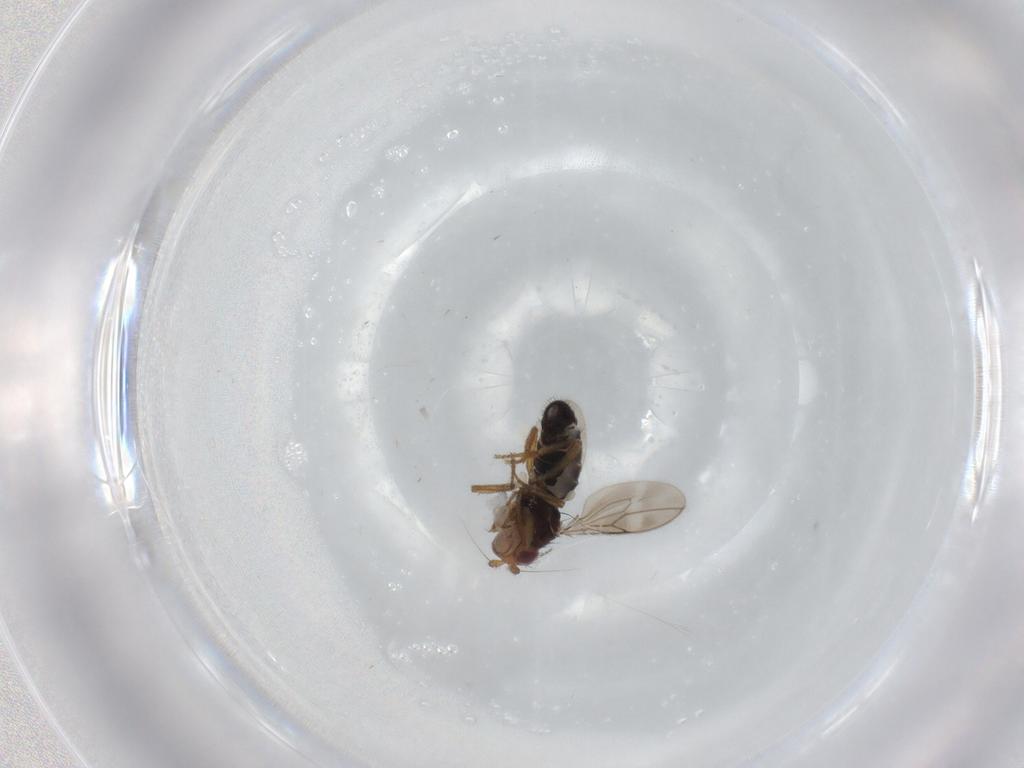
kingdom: Animalia
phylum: Arthropoda
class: Insecta
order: Diptera
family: Sphaeroceridae
